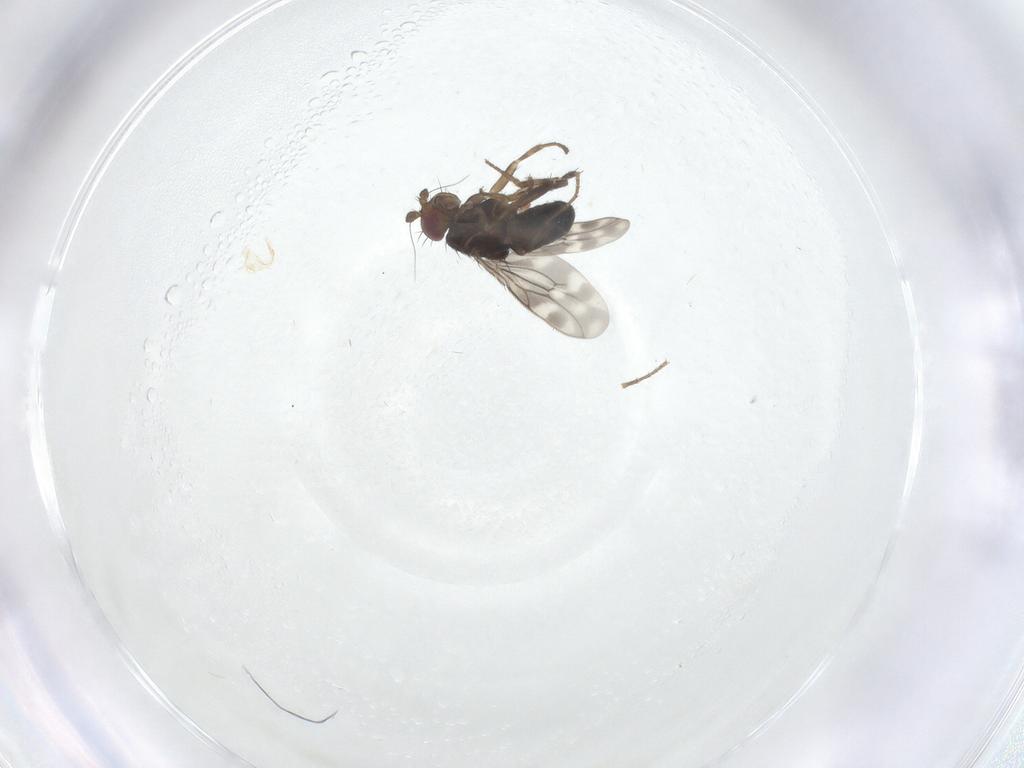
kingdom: Animalia
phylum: Arthropoda
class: Insecta
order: Diptera
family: Sphaeroceridae
